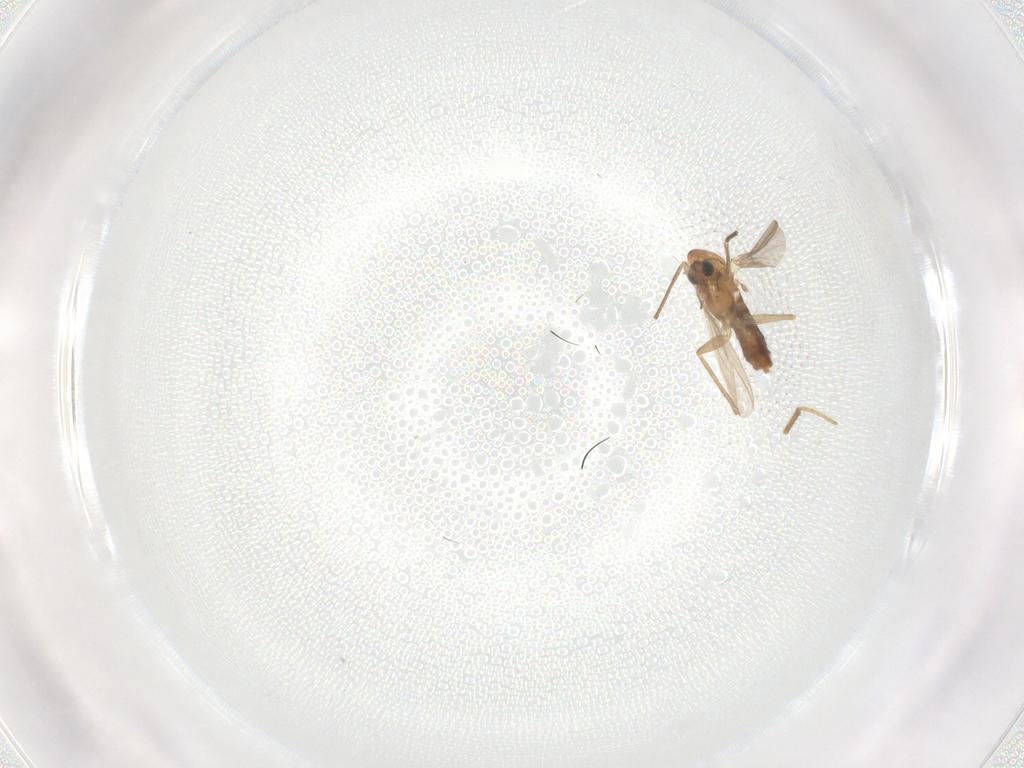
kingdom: Animalia
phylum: Arthropoda
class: Insecta
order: Diptera
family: Chironomidae
